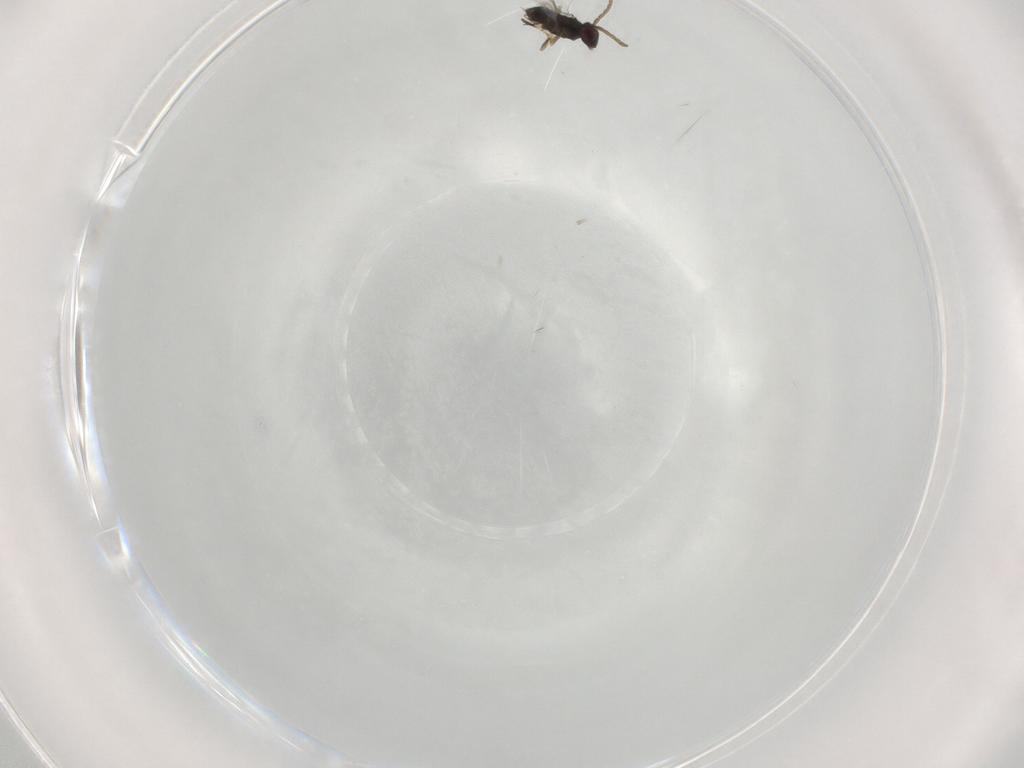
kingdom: Animalia
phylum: Arthropoda
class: Insecta
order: Hymenoptera
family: Aphelinidae
